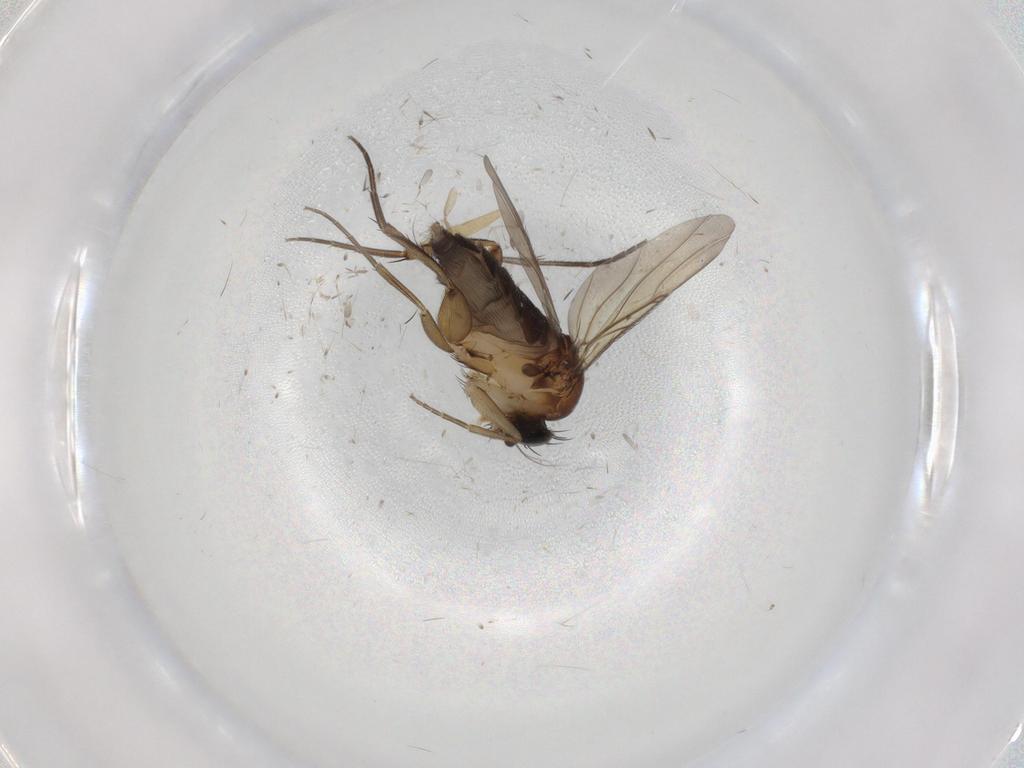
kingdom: Animalia
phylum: Arthropoda
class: Insecta
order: Diptera
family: Phoridae
